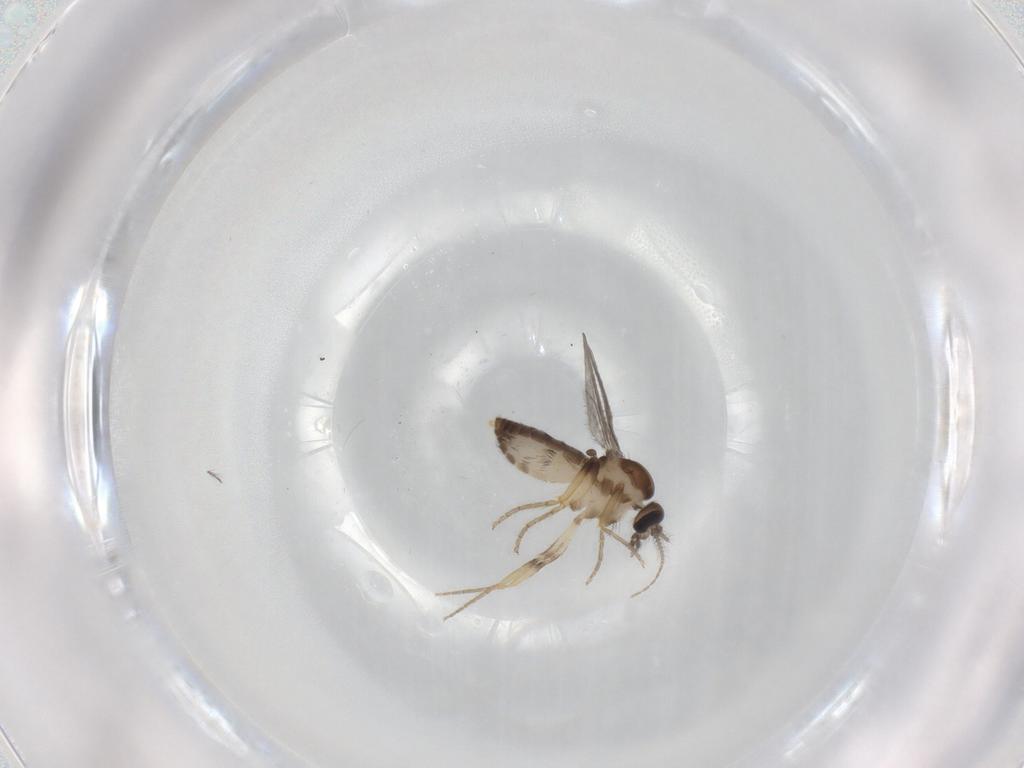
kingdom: Animalia
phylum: Arthropoda
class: Insecta
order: Diptera
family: Ceratopogonidae
